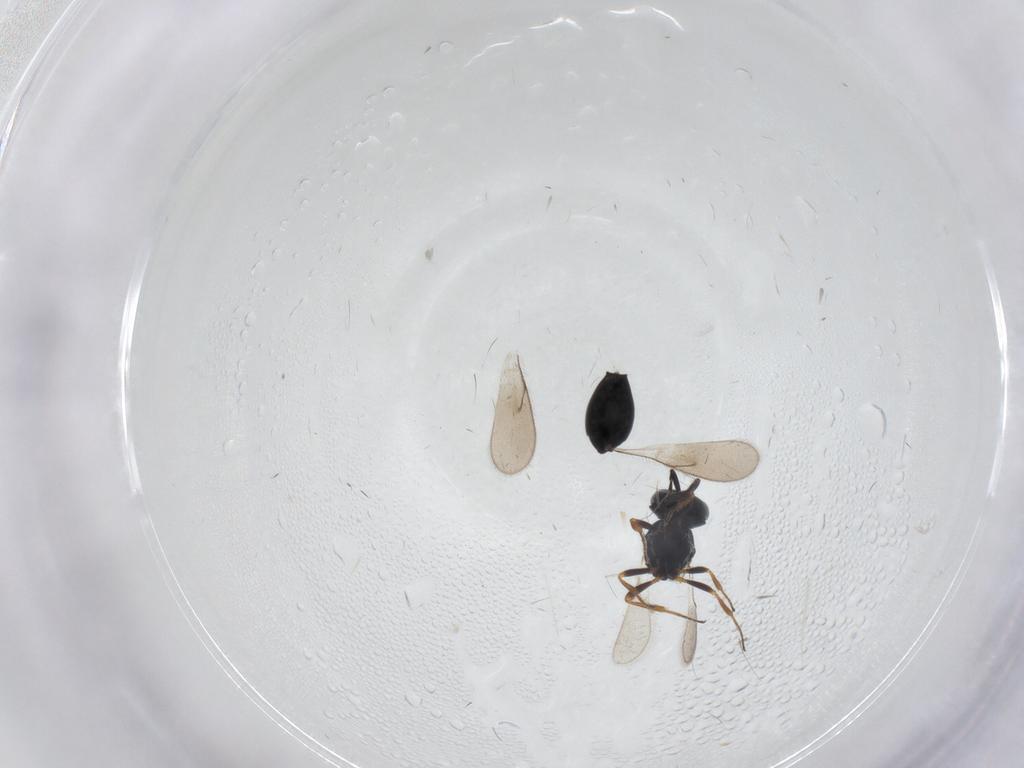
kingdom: Animalia
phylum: Arthropoda
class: Insecta
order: Hymenoptera
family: Scelionidae
